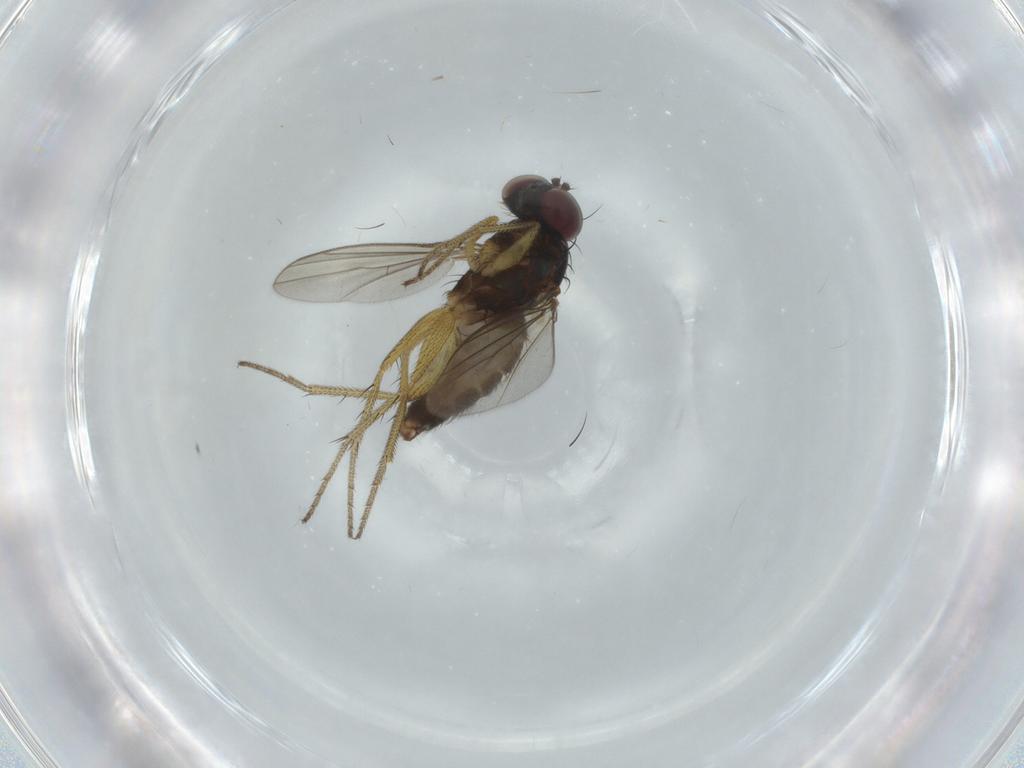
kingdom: Animalia
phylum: Arthropoda
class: Insecta
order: Diptera
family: Dolichopodidae
